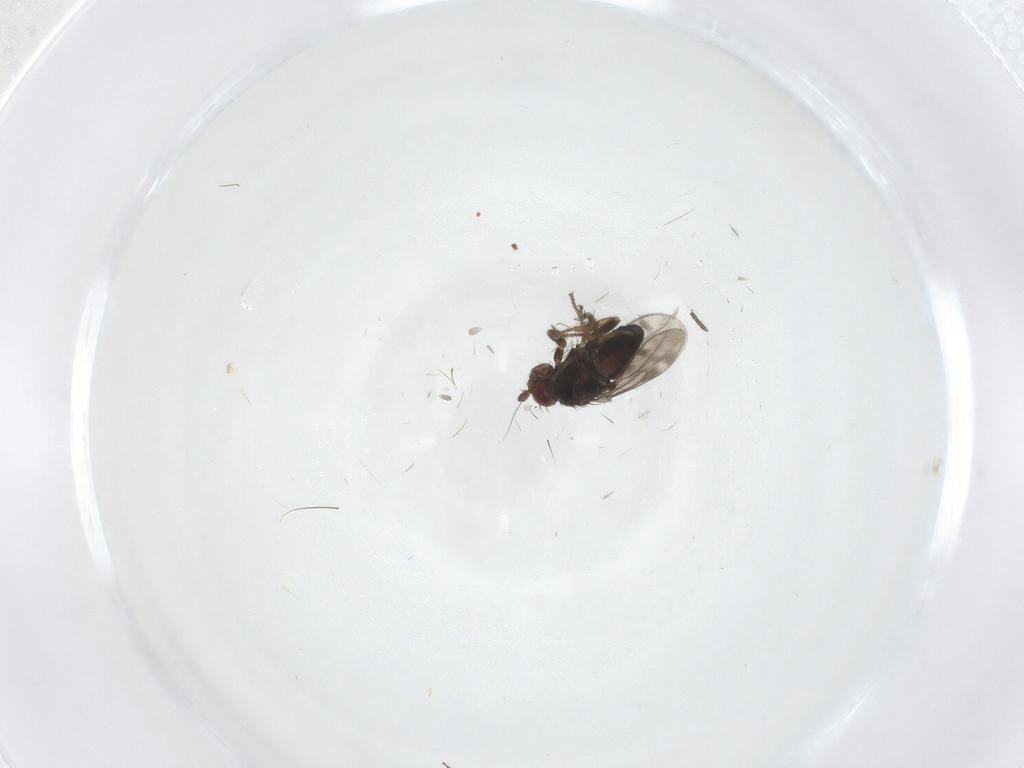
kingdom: Animalia
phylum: Arthropoda
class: Insecta
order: Diptera
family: Sphaeroceridae
